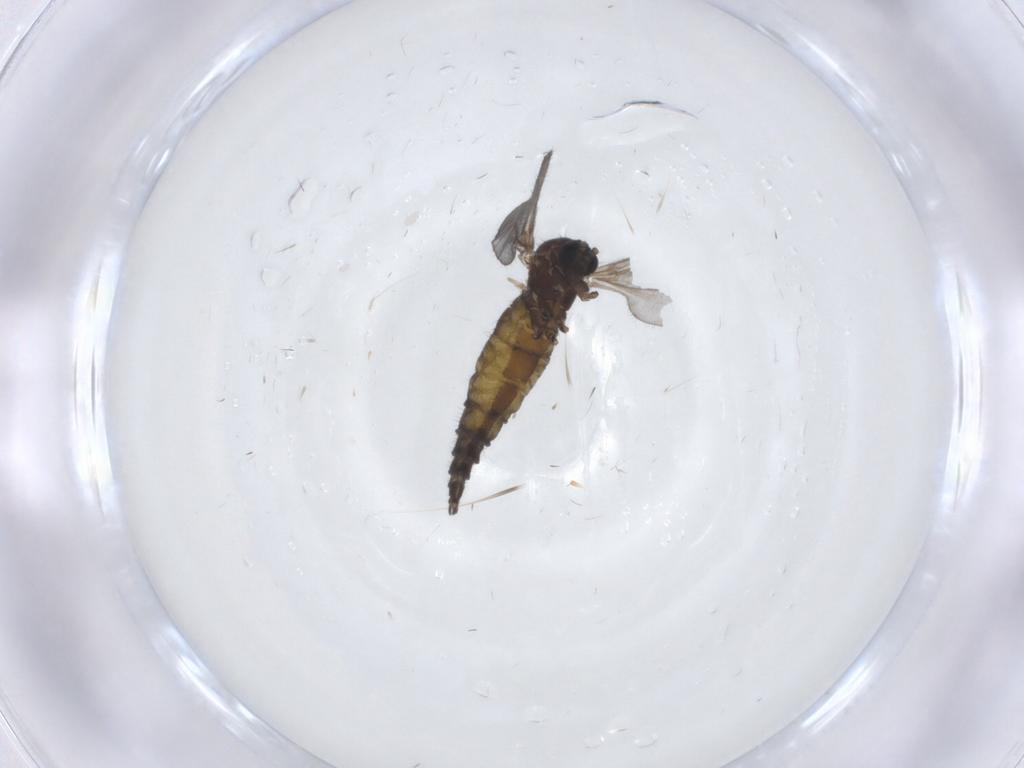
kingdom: Animalia
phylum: Arthropoda
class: Insecta
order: Diptera
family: Sciaridae
